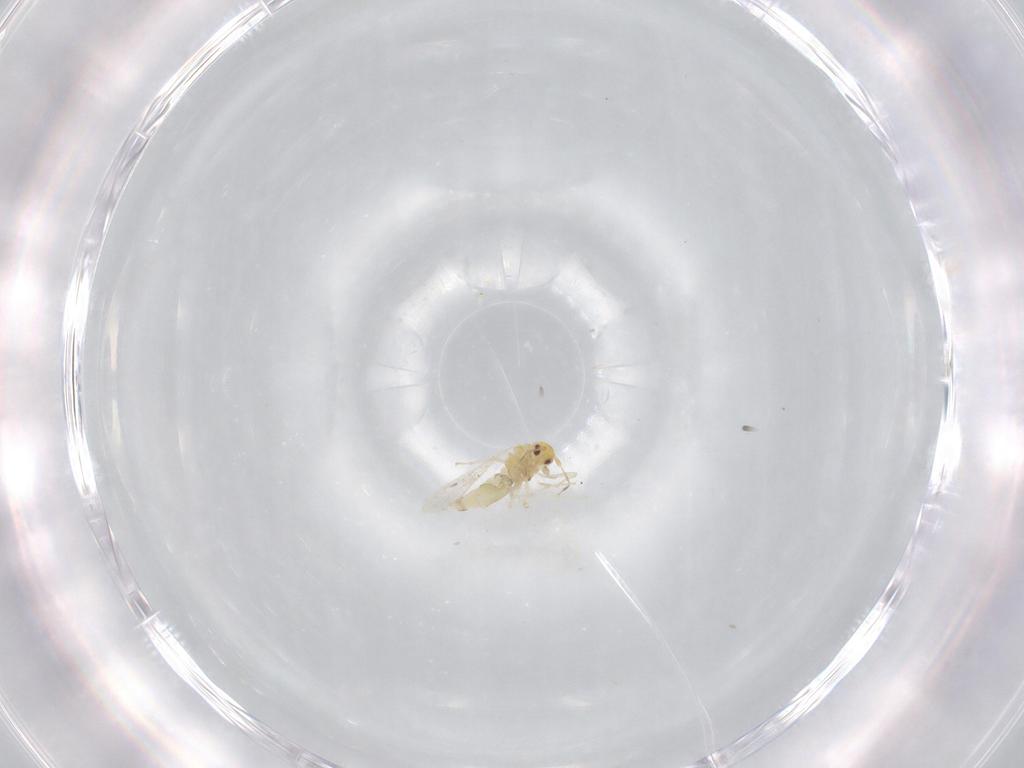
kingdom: Animalia
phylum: Arthropoda
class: Insecta
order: Hemiptera
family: Aleyrodidae
